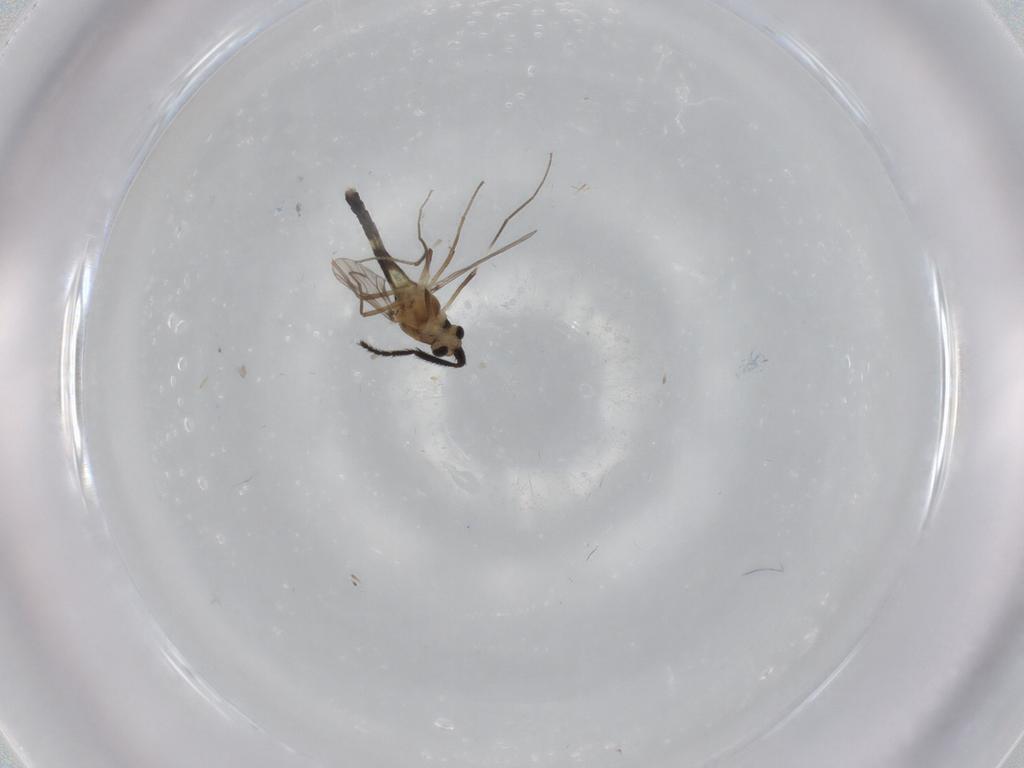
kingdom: Animalia
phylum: Arthropoda
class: Insecta
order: Diptera
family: Chironomidae
